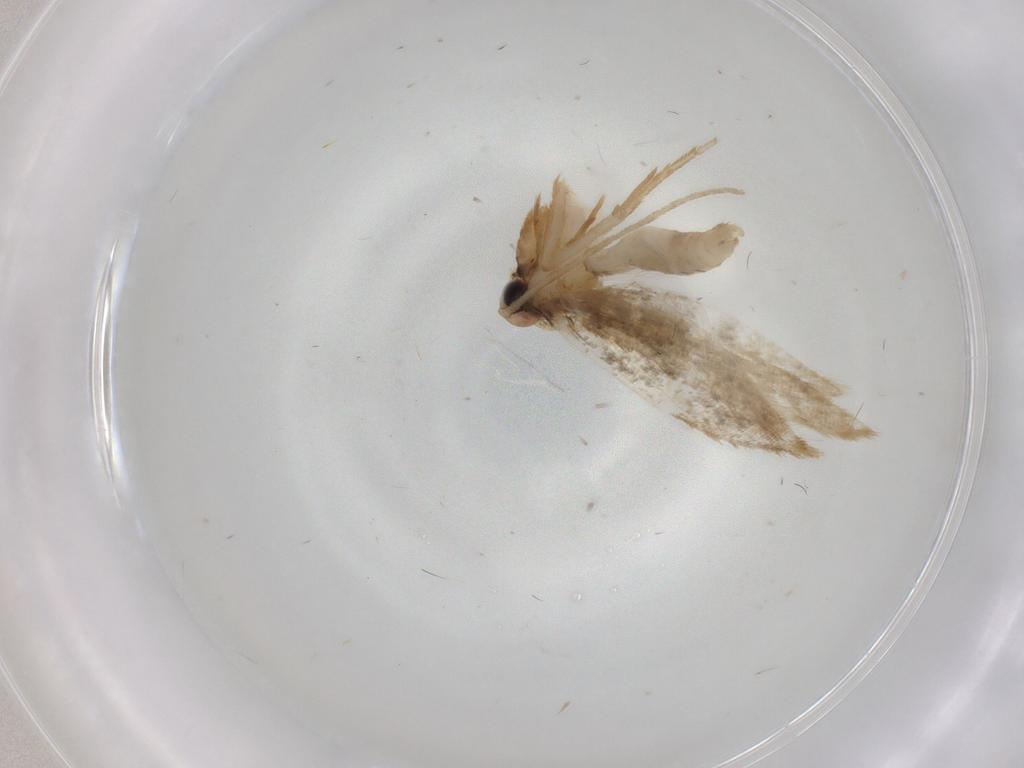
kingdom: Animalia
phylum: Arthropoda
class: Insecta
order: Lepidoptera
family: Cosmopterigidae
